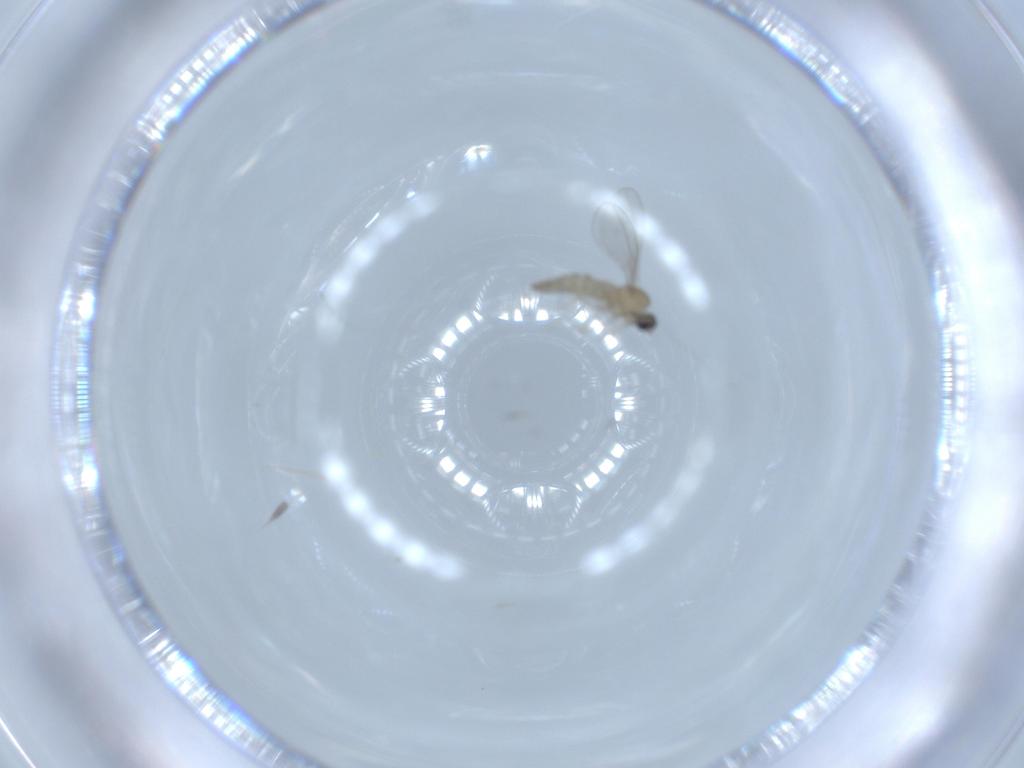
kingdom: Animalia
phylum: Arthropoda
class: Insecta
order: Diptera
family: Cecidomyiidae
